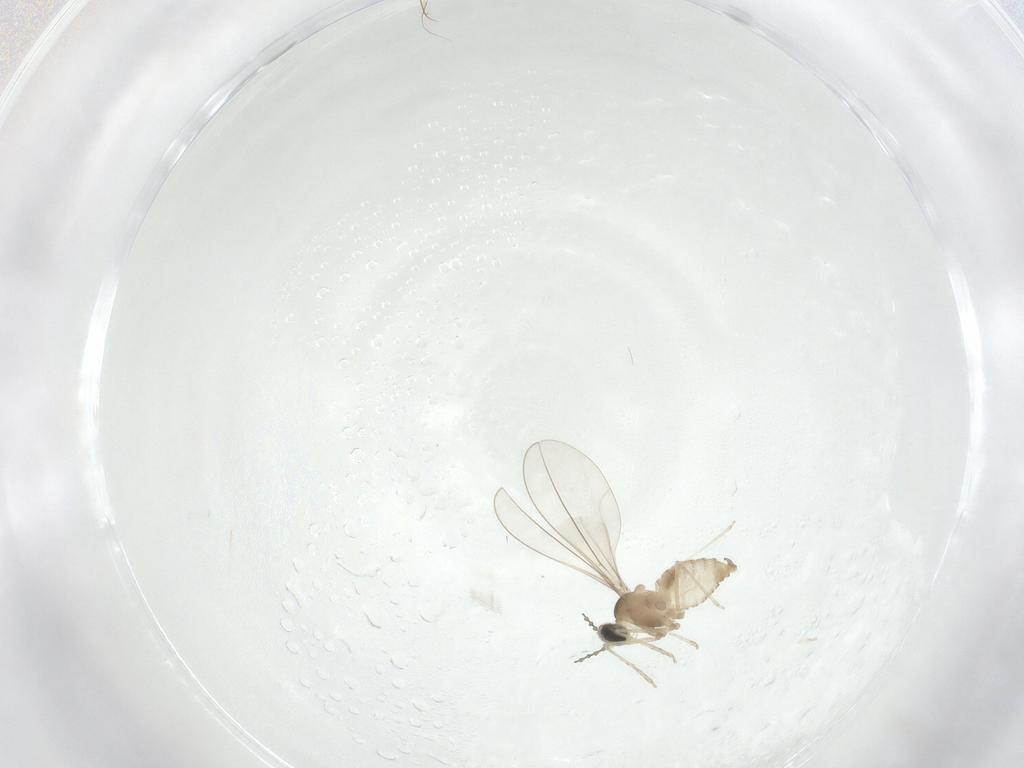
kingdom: Animalia
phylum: Arthropoda
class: Insecta
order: Diptera
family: Cecidomyiidae
